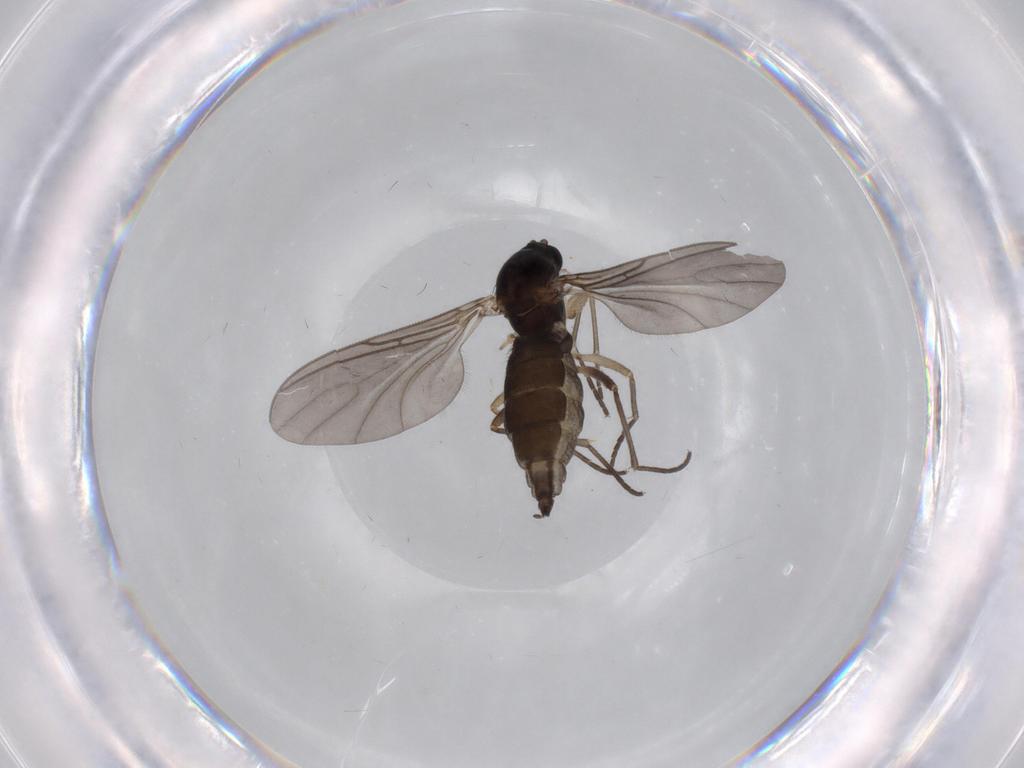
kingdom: Animalia
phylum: Arthropoda
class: Insecta
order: Diptera
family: Sciaridae
